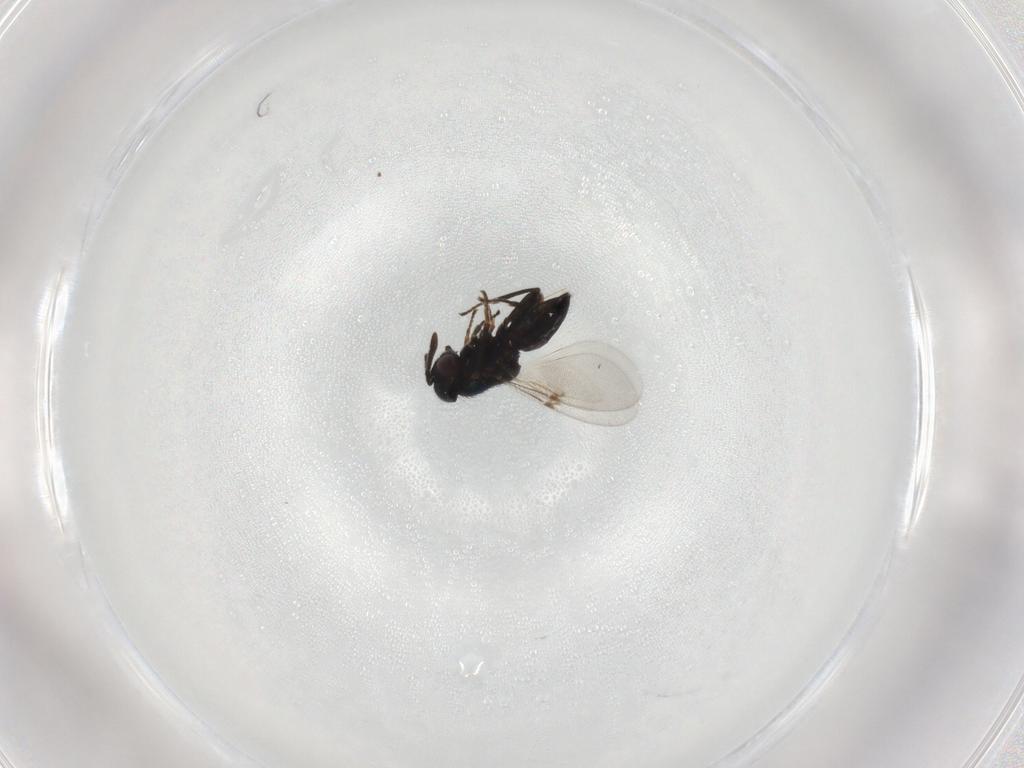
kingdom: Animalia
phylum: Arthropoda
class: Insecta
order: Hymenoptera
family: Encyrtidae
